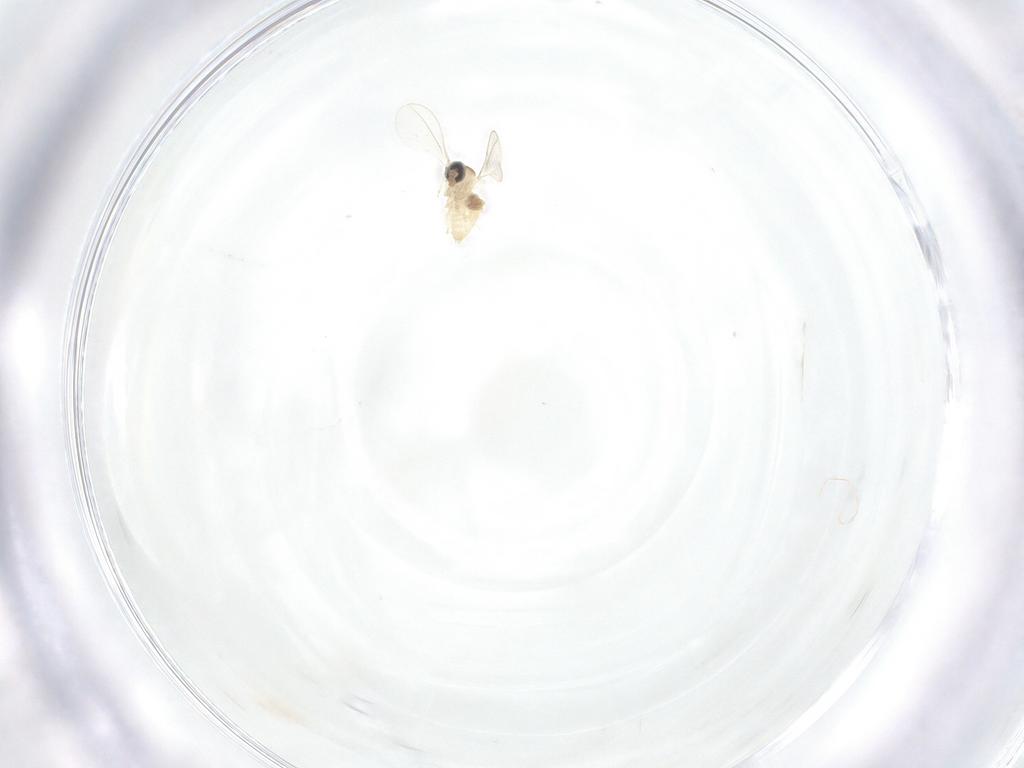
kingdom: Animalia
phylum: Arthropoda
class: Insecta
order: Diptera
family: Cecidomyiidae
